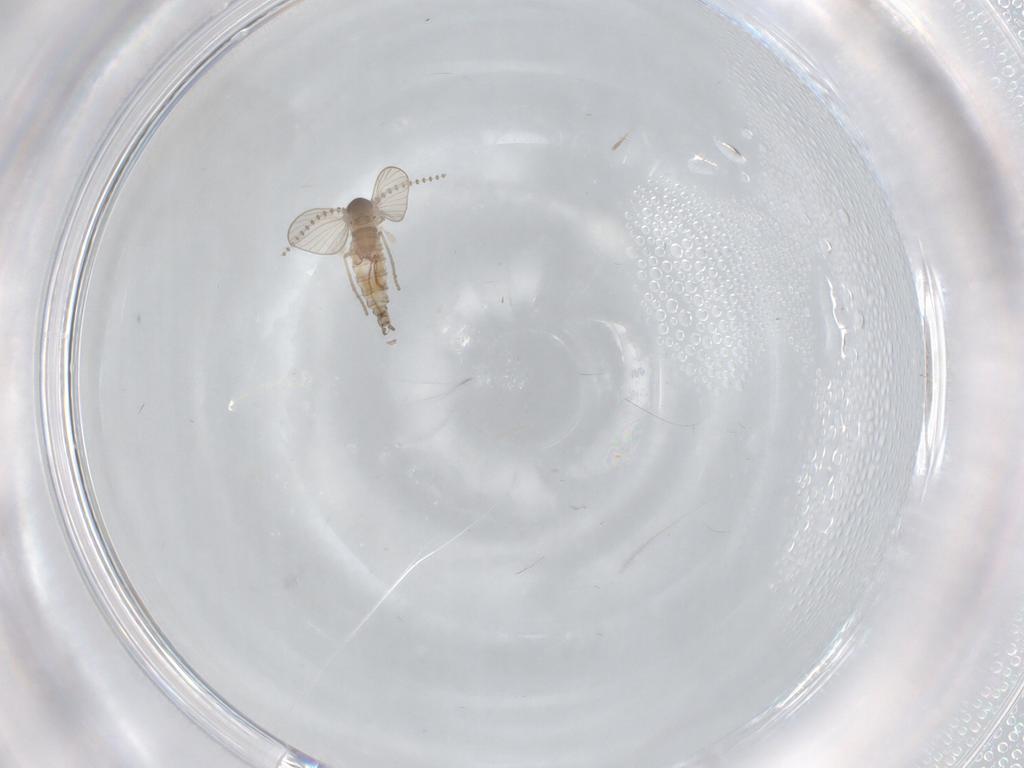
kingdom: Animalia
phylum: Arthropoda
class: Insecta
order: Diptera
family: Psychodidae
